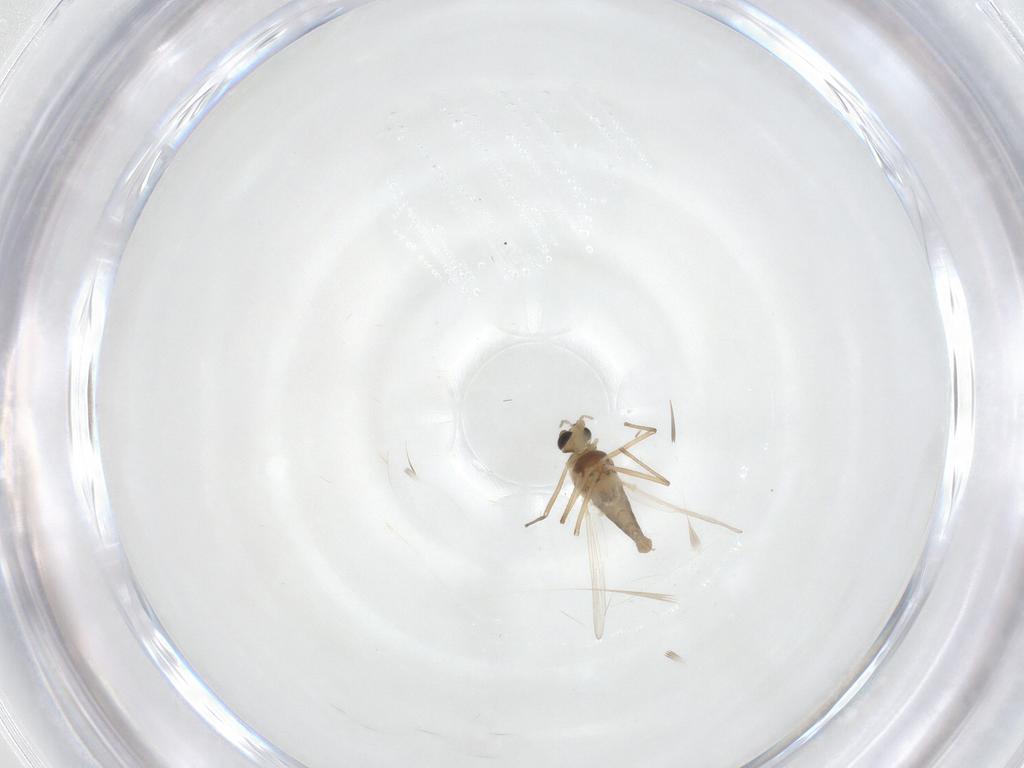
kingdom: Animalia
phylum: Arthropoda
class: Insecta
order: Diptera
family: Chironomidae
